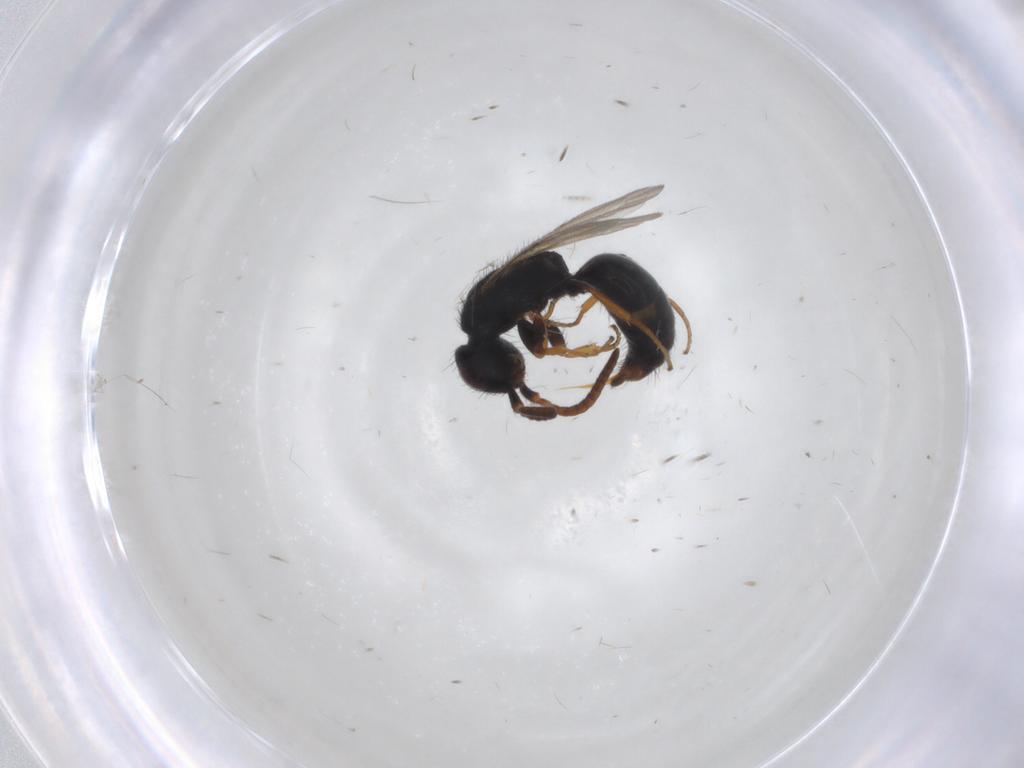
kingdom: Animalia
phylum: Arthropoda
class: Insecta
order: Hymenoptera
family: Bethylidae
